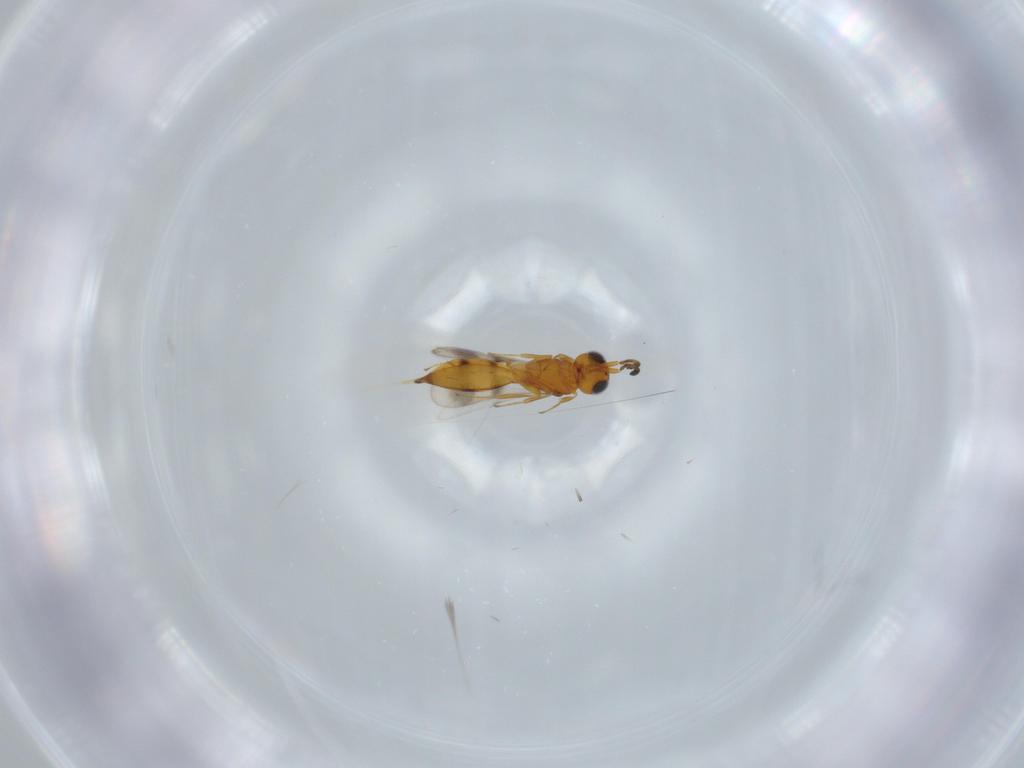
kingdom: Animalia
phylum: Arthropoda
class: Insecta
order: Hymenoptera
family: Scelionidae
